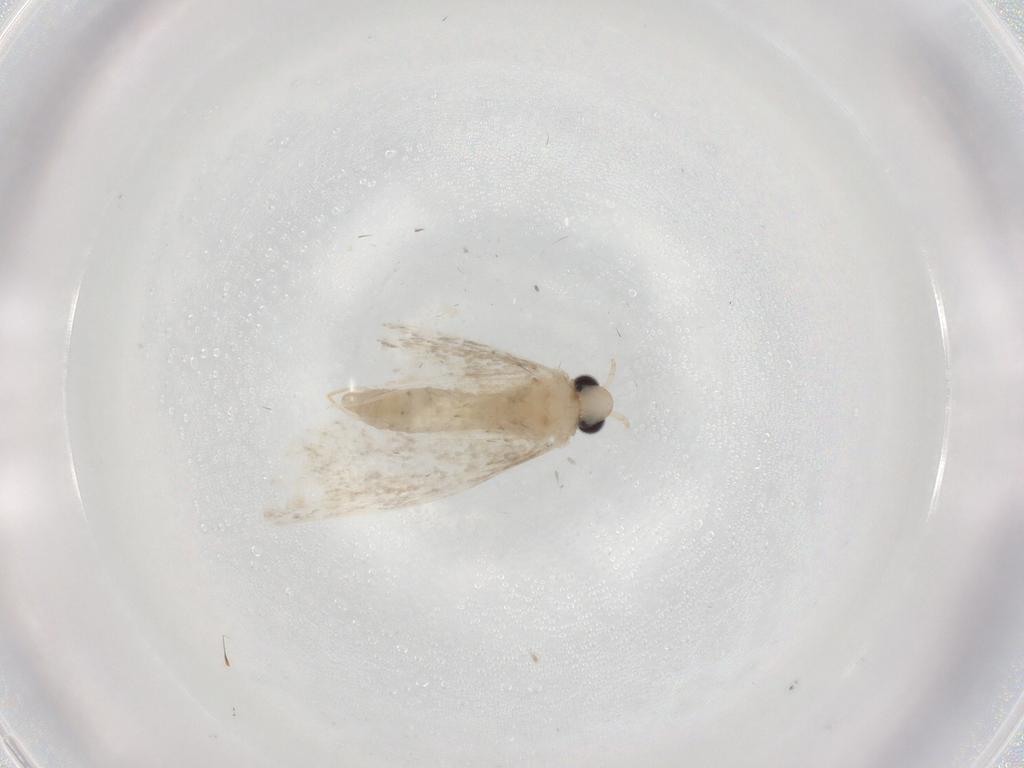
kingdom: Animalia
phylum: Arthropoda
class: Insecta
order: Lepidoptera
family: Psychidae
